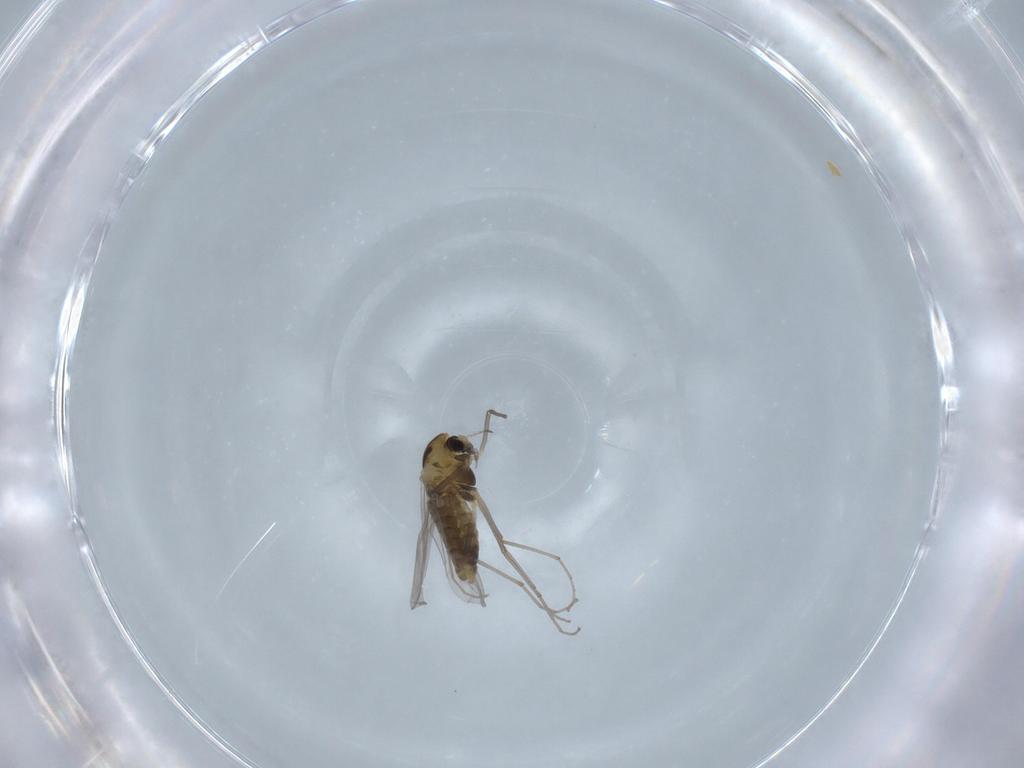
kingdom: Animalia
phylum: Arthropoda
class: Insecta
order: Diptera
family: Chironomidae
